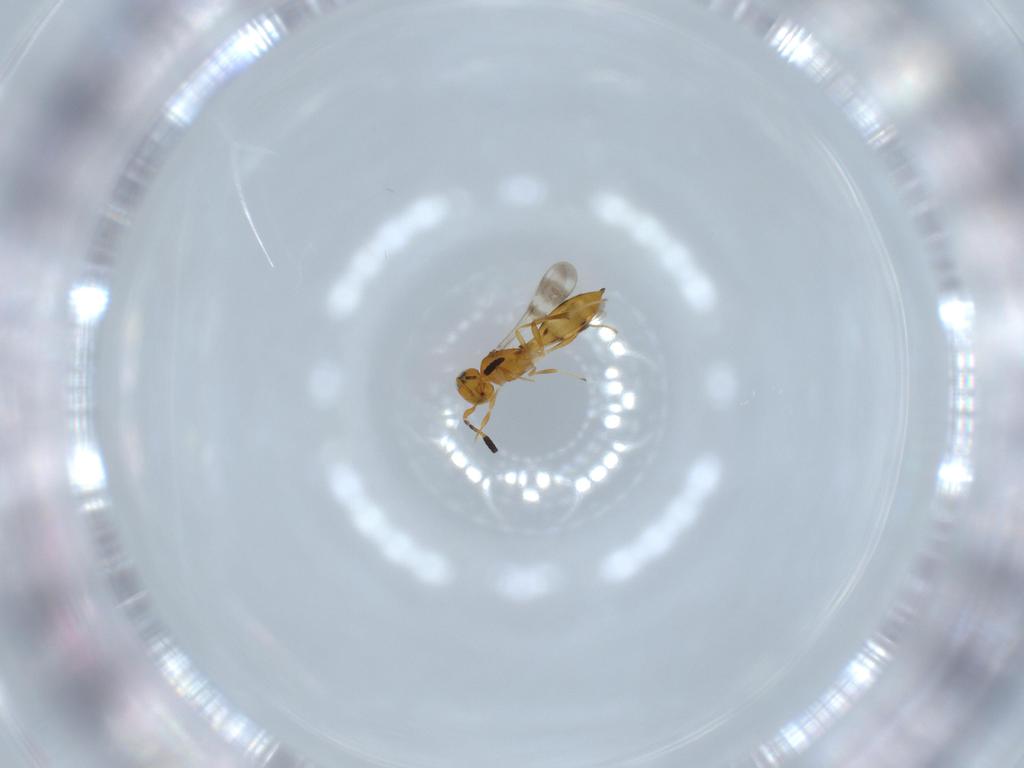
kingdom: Animalia
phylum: Arthropoda
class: Insecta
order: Hymenoptera
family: Scelionidae
